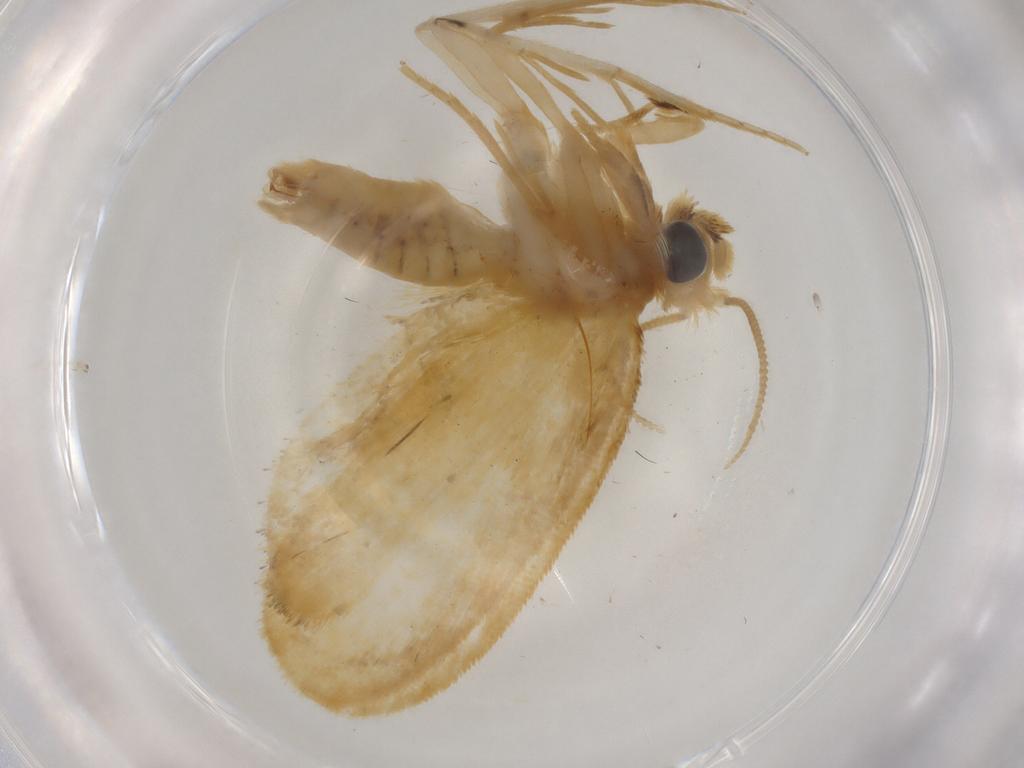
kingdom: Animalia
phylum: Arthropoda
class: Insecta
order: Lepidoptera
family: Psychidae
